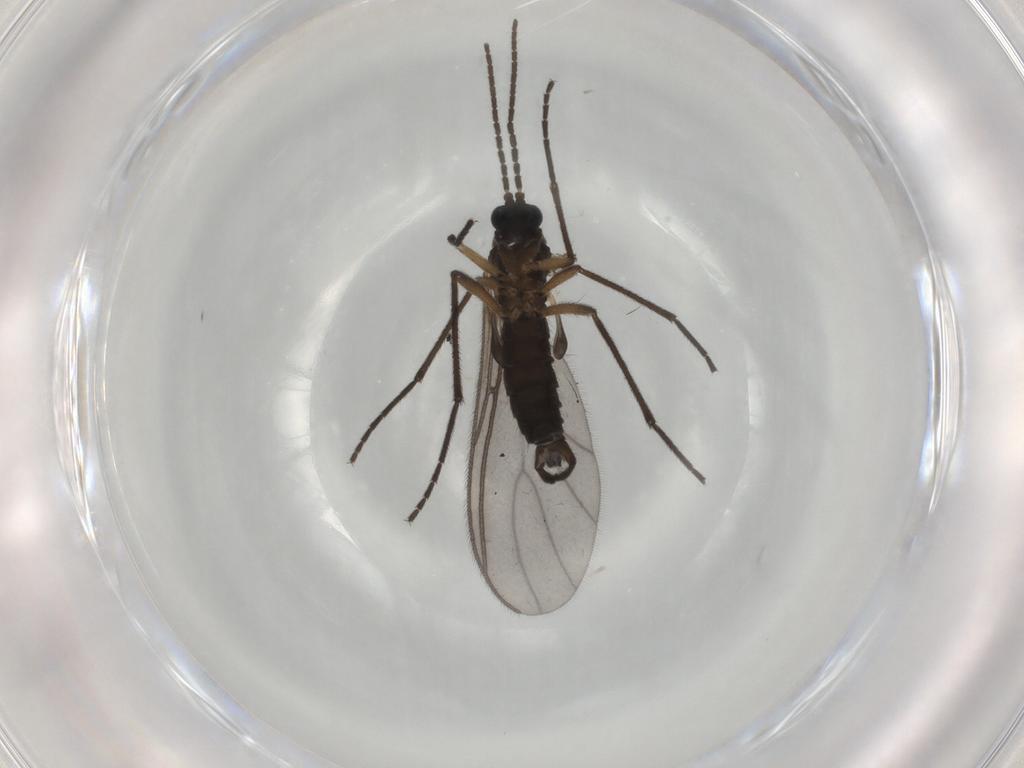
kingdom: Animalia
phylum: Arthropoda
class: Insecta
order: Diptera
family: Sciaridae
